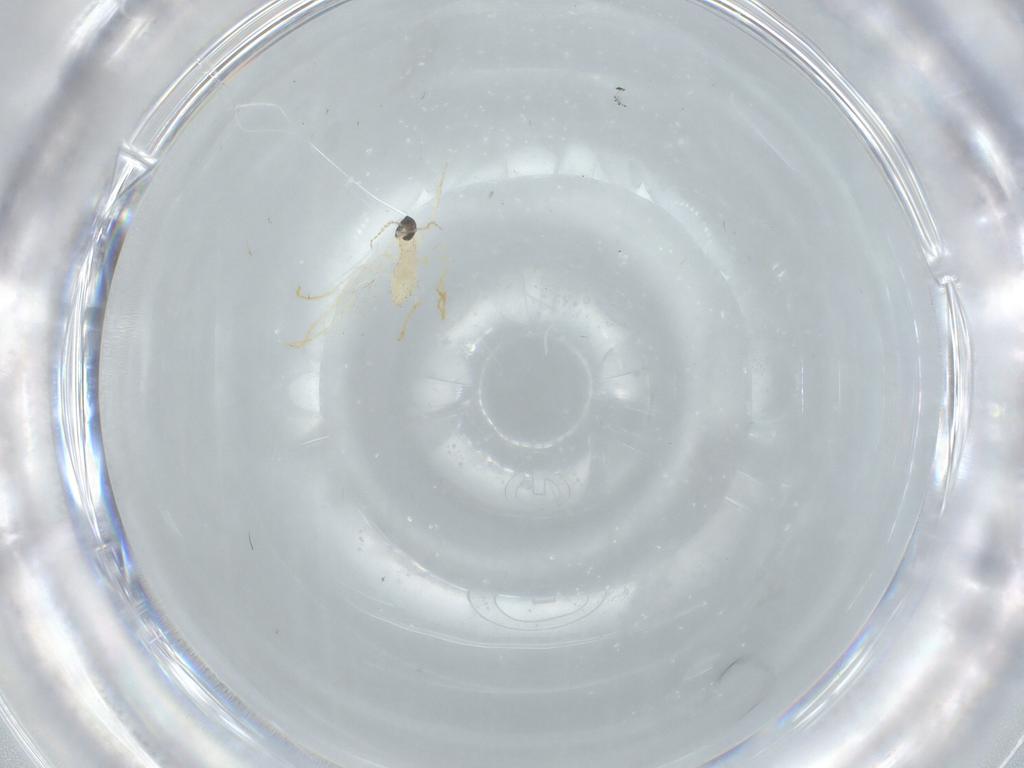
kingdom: Animalia
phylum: Arthropoda
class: Insecta
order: Diptera
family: Cecidomyiidae
